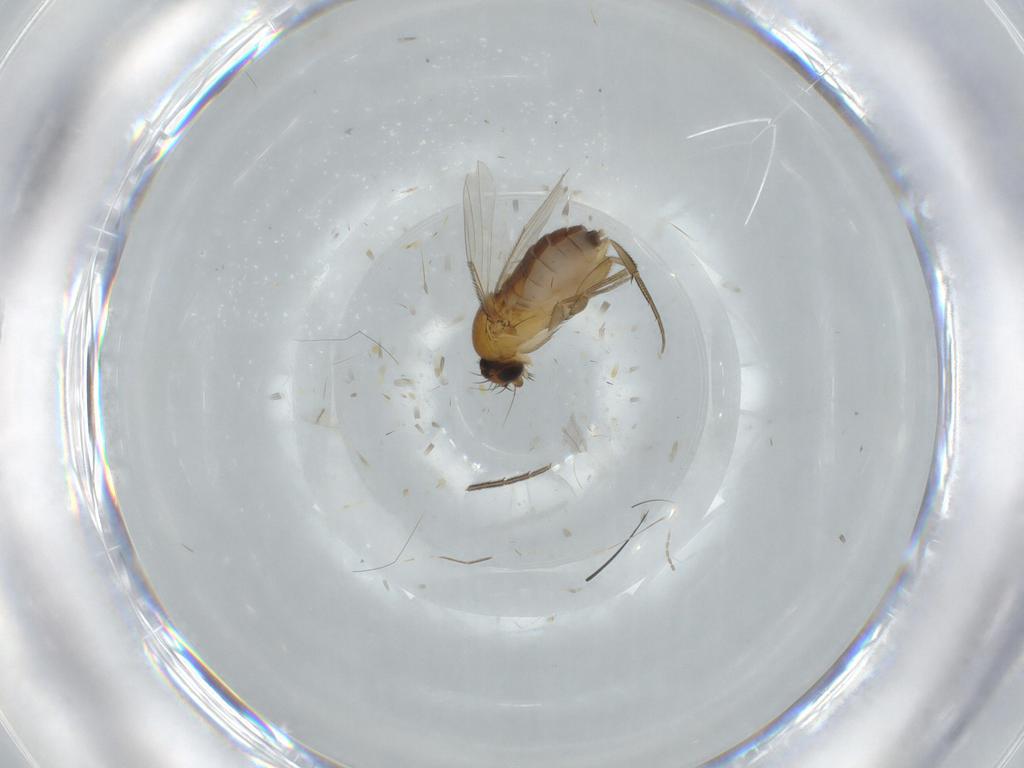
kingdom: Animalia
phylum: Arthropoda
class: Insecta
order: Diptera
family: Phoridae
